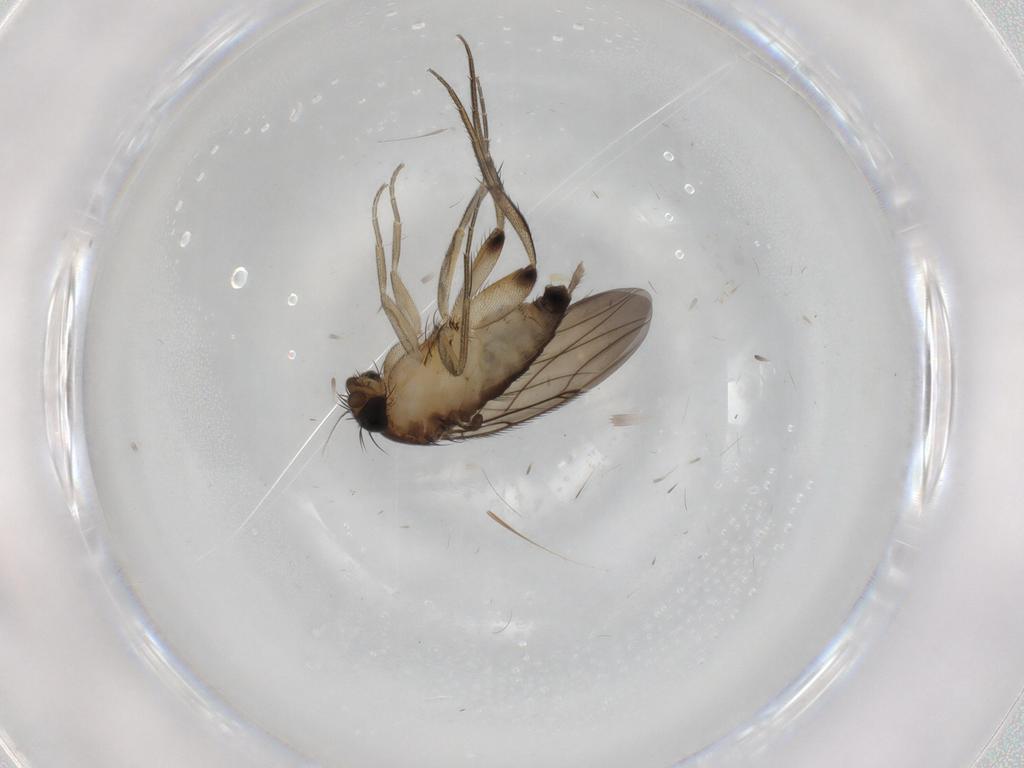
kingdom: Animalia
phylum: Arthropoda
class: Insecta
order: Diptera
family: Phoridae
